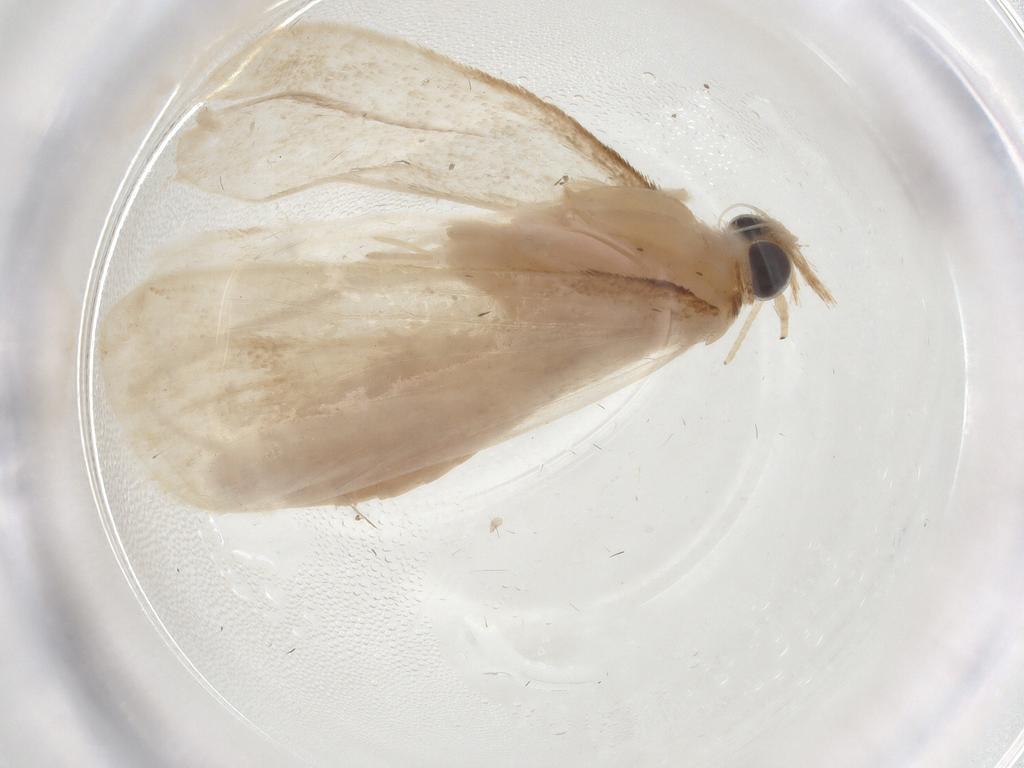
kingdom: Animalia
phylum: Arthropoda
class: Insecta
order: Lepidoptera
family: Crambidae
